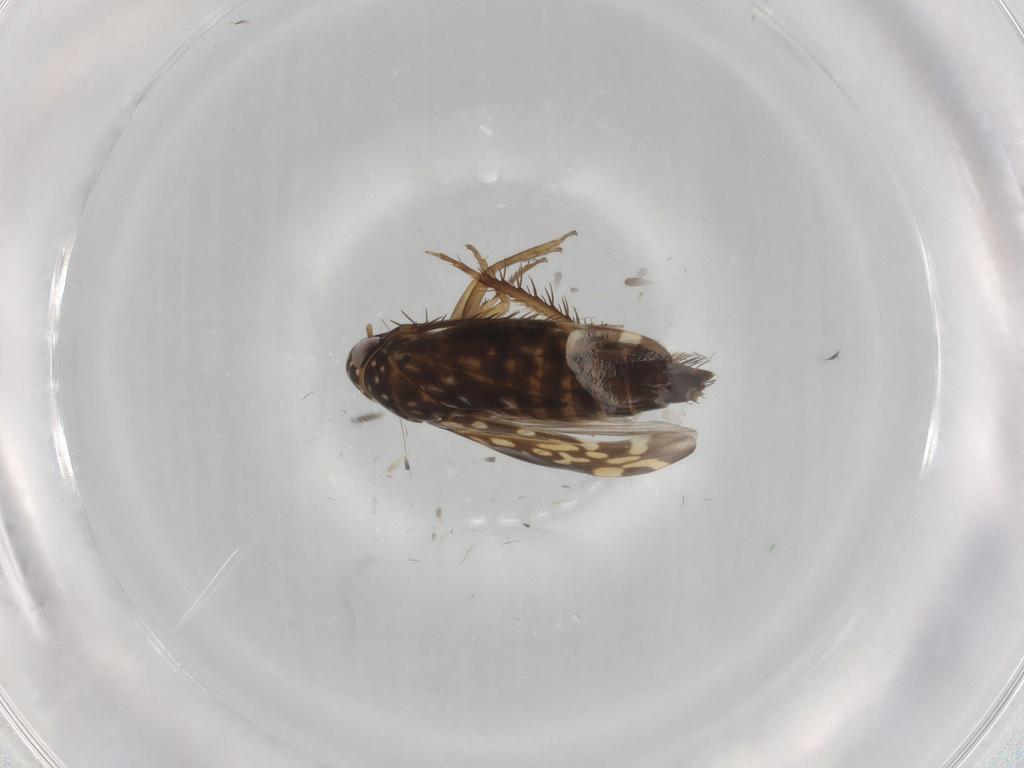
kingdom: Animalia
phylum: Arthropoda
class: Insecta
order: Hemiptera
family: Cicadellidae
